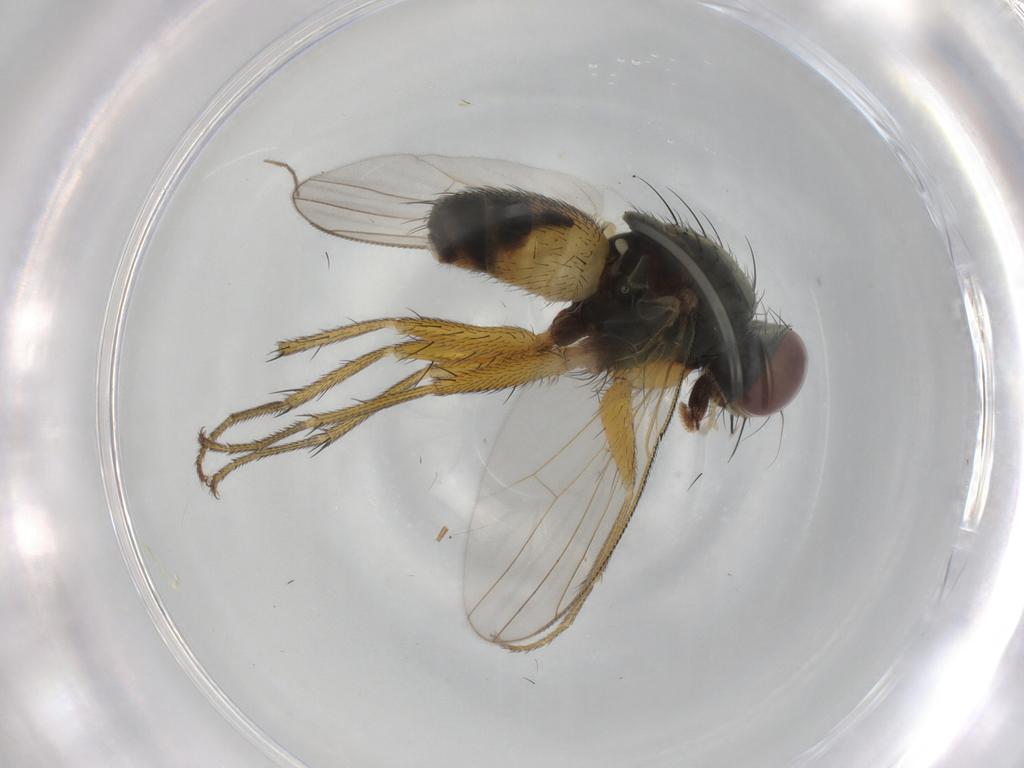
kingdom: Animalia
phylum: Arthropoda
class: Insecta
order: Diptera
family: Muscidae
